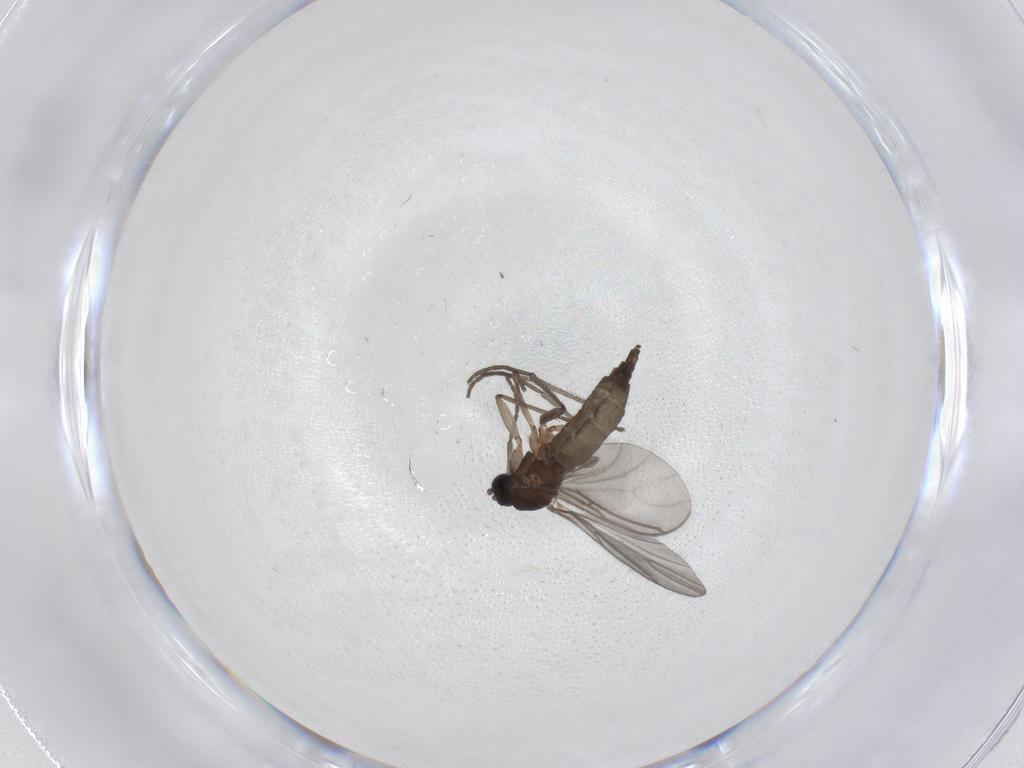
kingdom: Animalia
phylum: Arthropoda
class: Insecta
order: Diptera
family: Sciaridae
